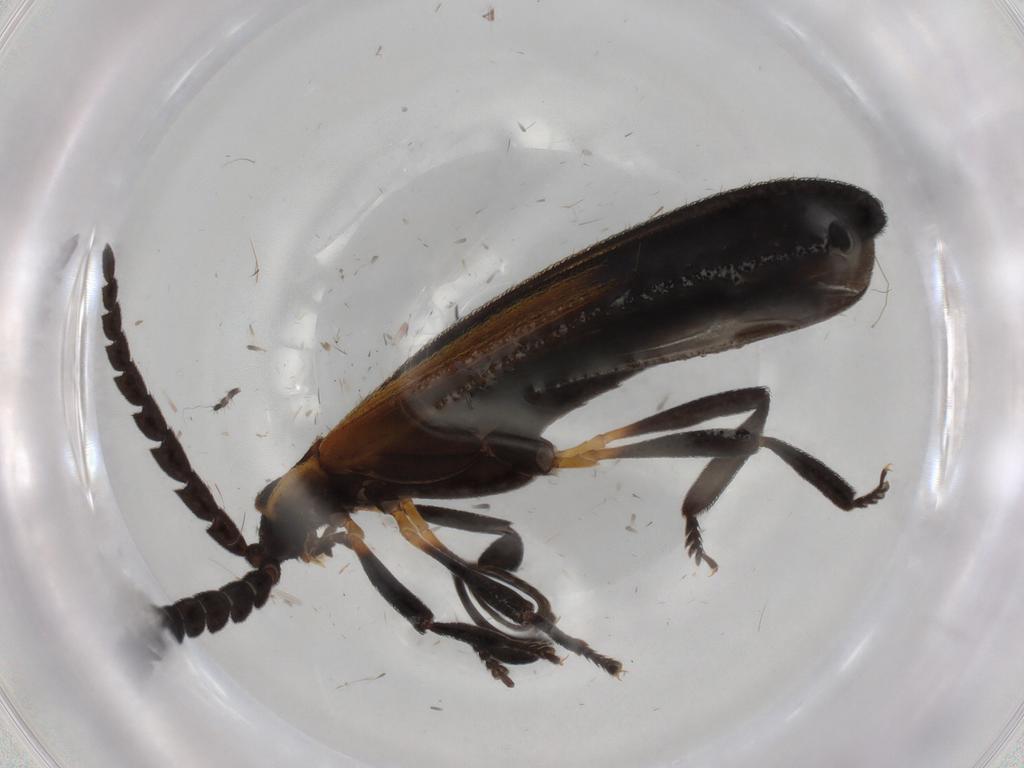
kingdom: Animalia
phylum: Arthropoda
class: Insecta
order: Coleoptera
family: Lycidae
